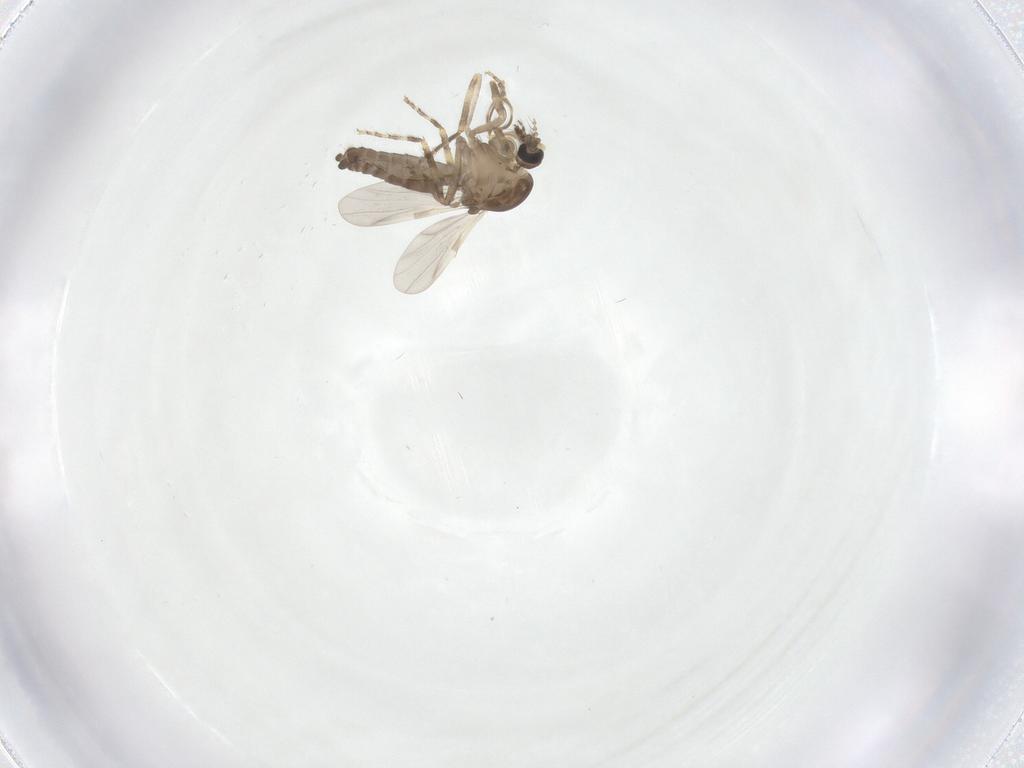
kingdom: Animalia
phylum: Arthropoda
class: Insecta
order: Diptera
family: Ceratopogonidae
